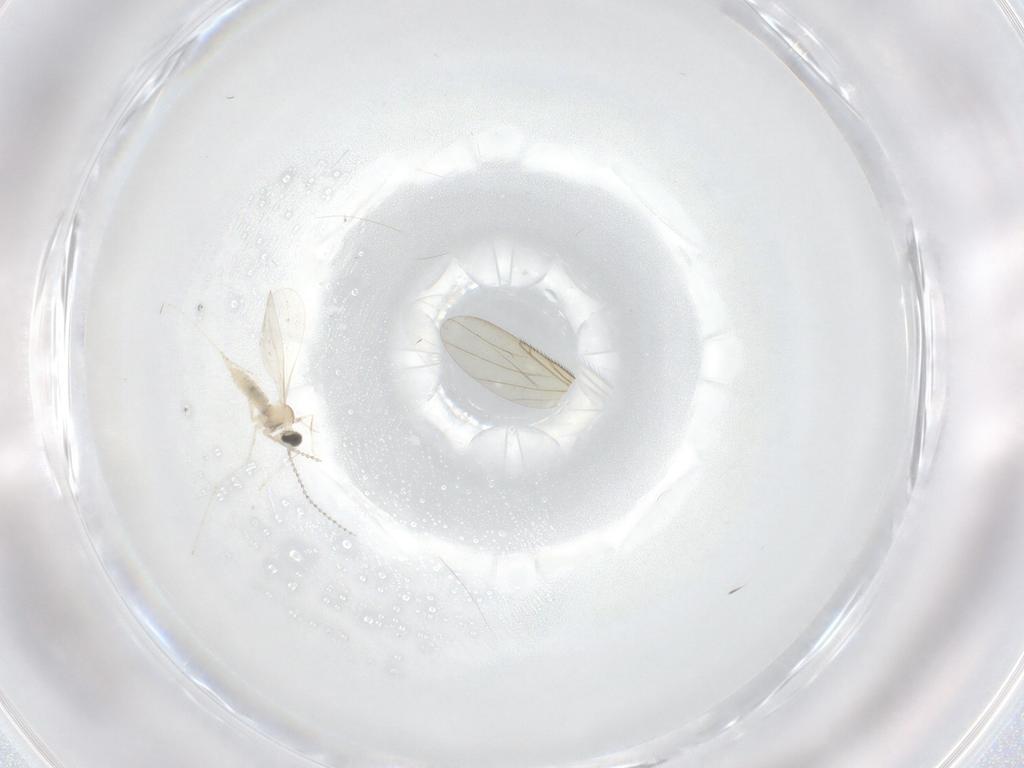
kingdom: Animalia
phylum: Arthropoda
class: Insecta
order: Diptera
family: Cecidomyiidae
